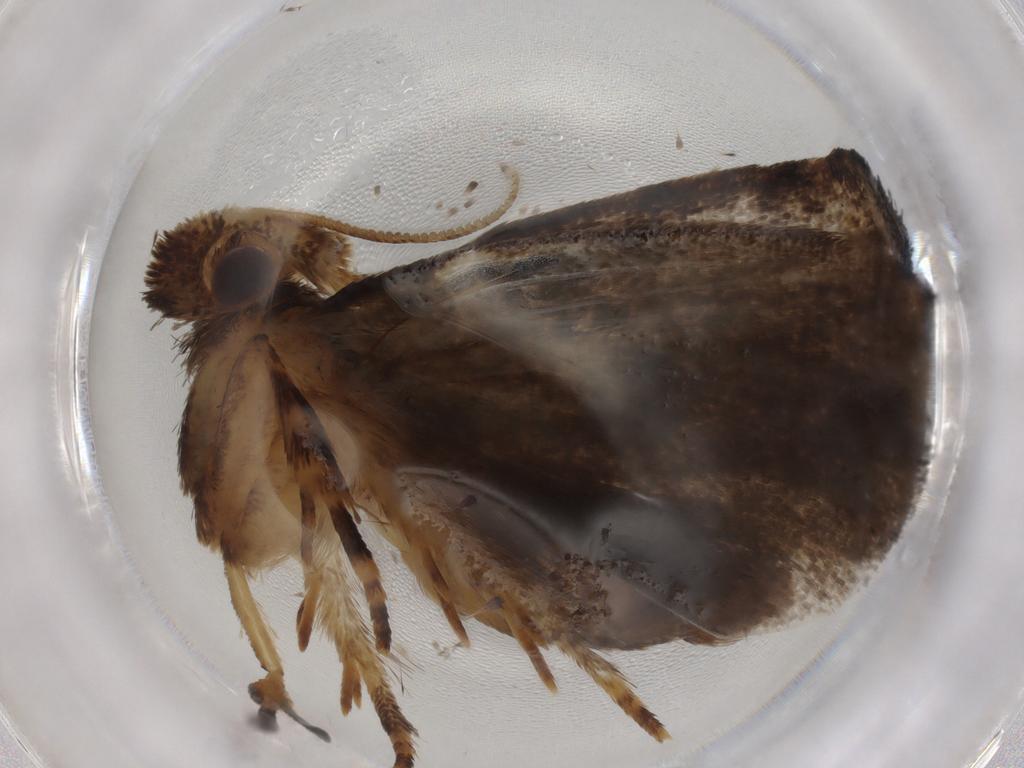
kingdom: Animalia
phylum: Arthropoda
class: Insecta
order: Lepidoptera
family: Tineidae
